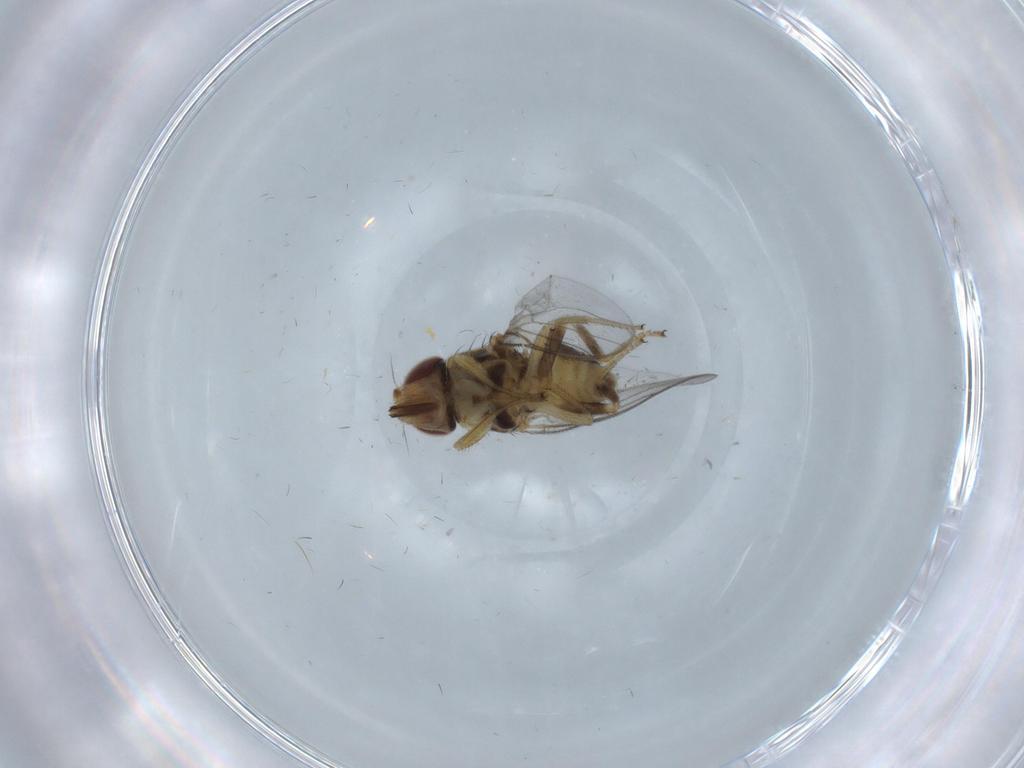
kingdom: Animalia
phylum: Arthropoda
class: Insecta
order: Diptera
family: Chloropidae
